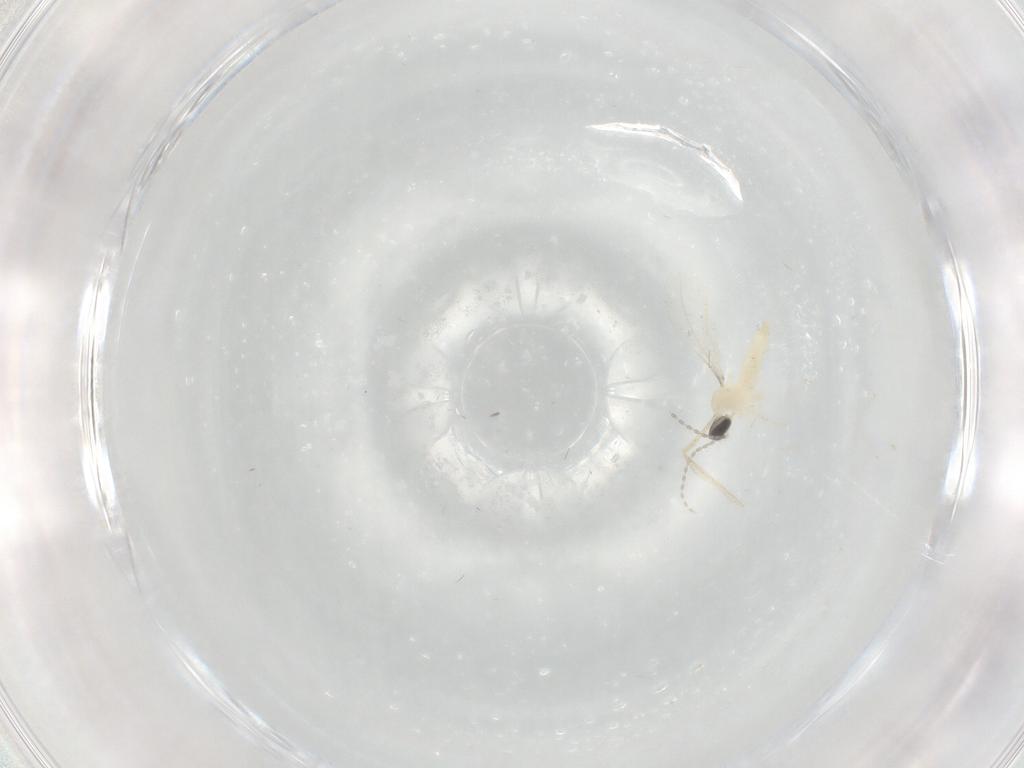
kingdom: Animalia
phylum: Arthropoda
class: Insecta
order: Diptera
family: Cecidomyiidae
